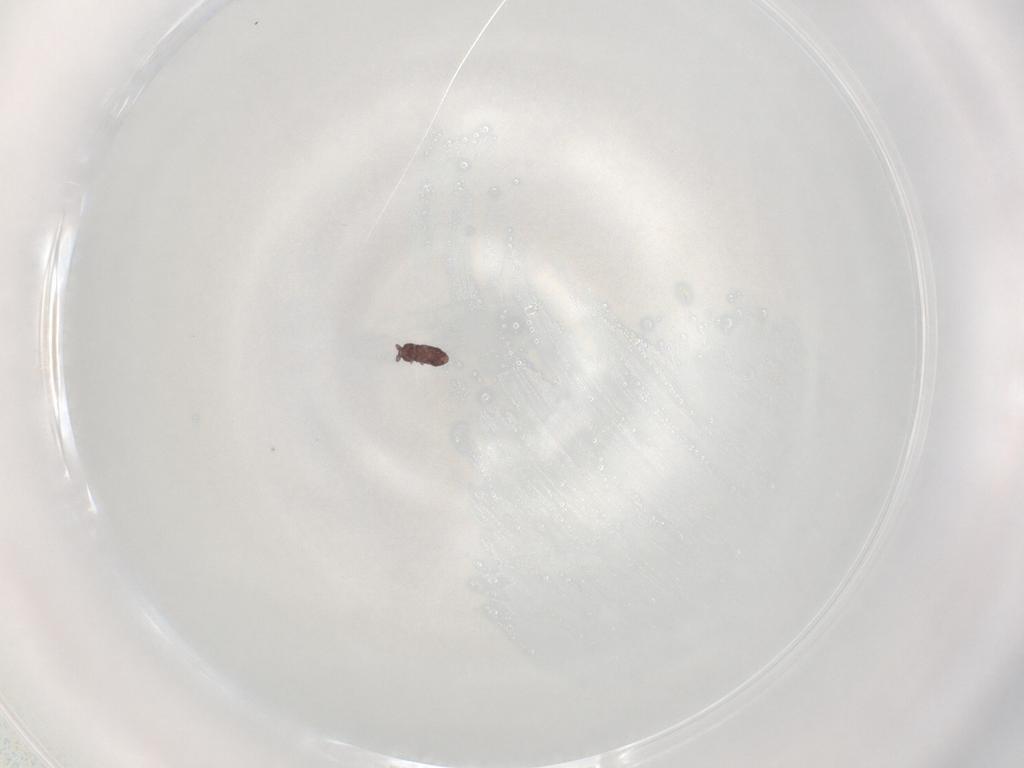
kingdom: Animalia
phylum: Arthropoda
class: Collembola
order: Poduromorpha
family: Hypogastruridae
